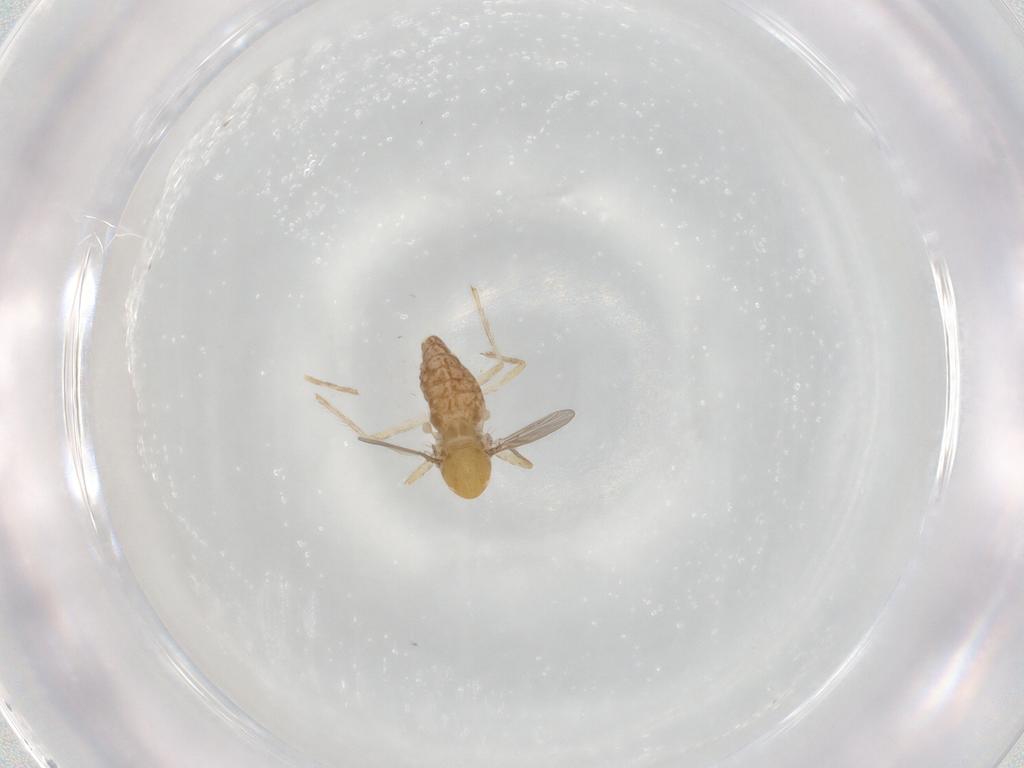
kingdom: Animalia
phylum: Arthropoda
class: Insecta
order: Diptera
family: Chironomidae
